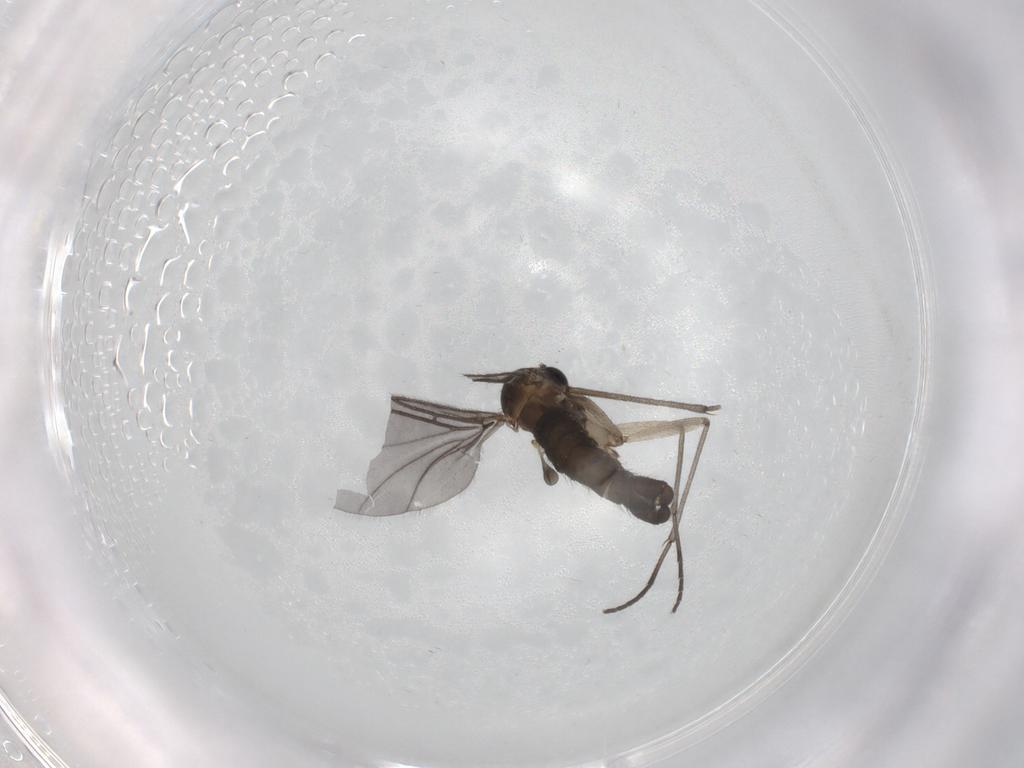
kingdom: Animalia
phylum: Arthropoda
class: Insecta
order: Diptera
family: Sciaridae
